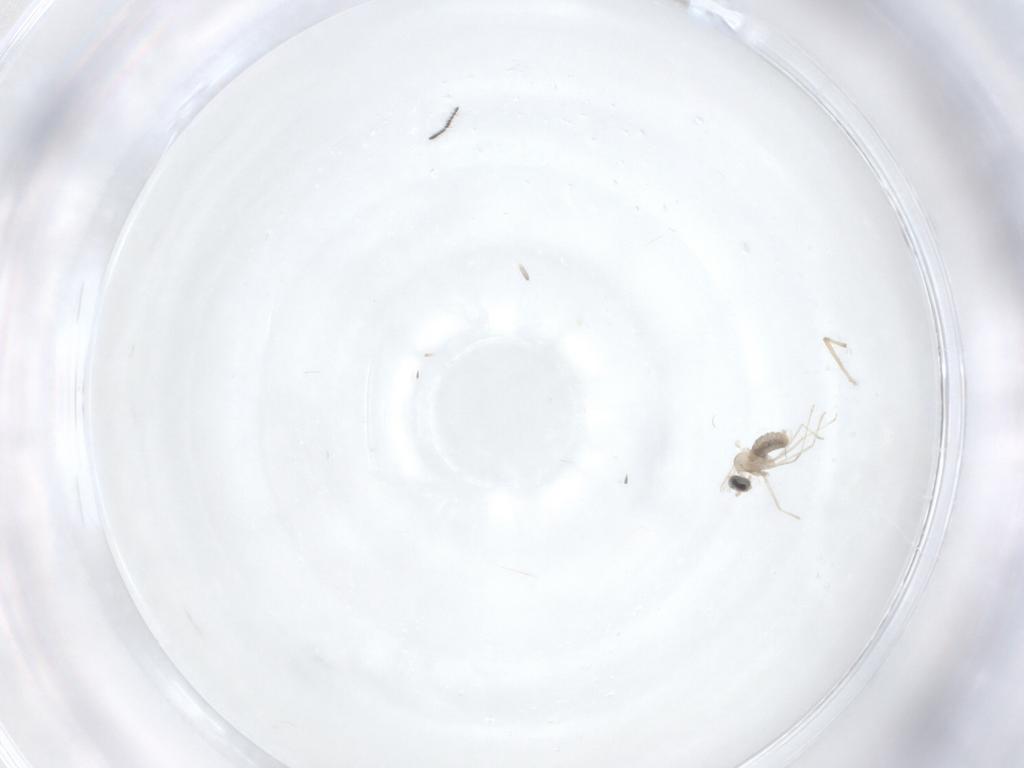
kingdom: Animalia
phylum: Arthropoda
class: Insecta
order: Diptera
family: Chironomidae
